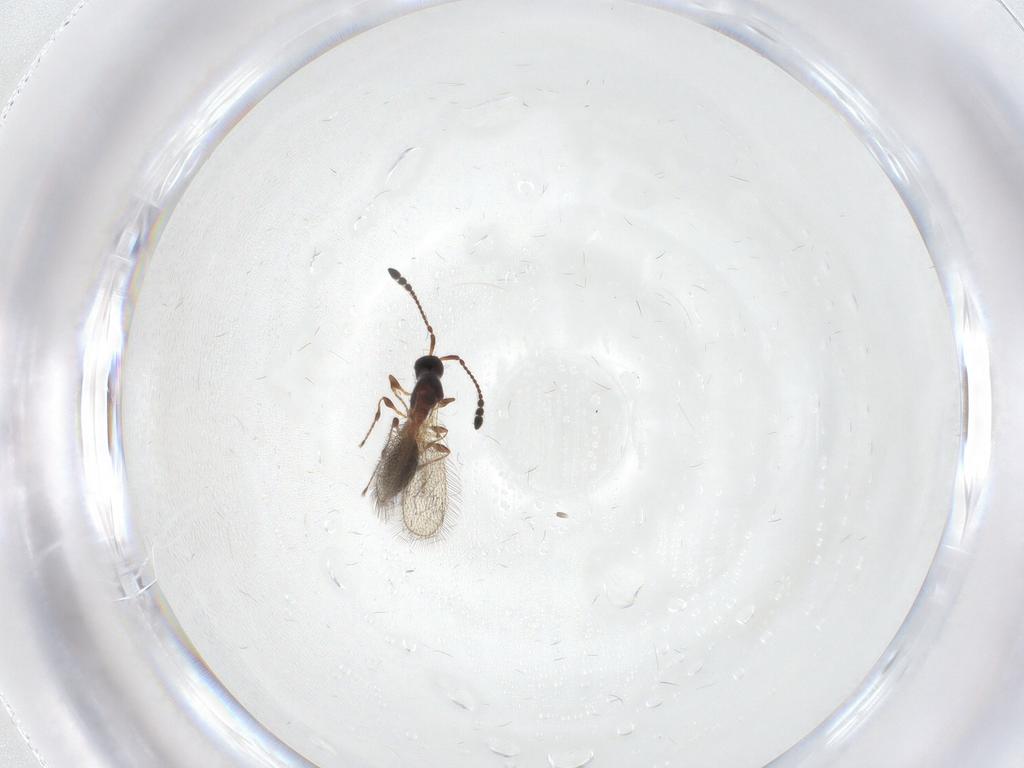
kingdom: Animalia
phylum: Arthropoda
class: Insecta
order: Hymenoptera
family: Diapriidae
